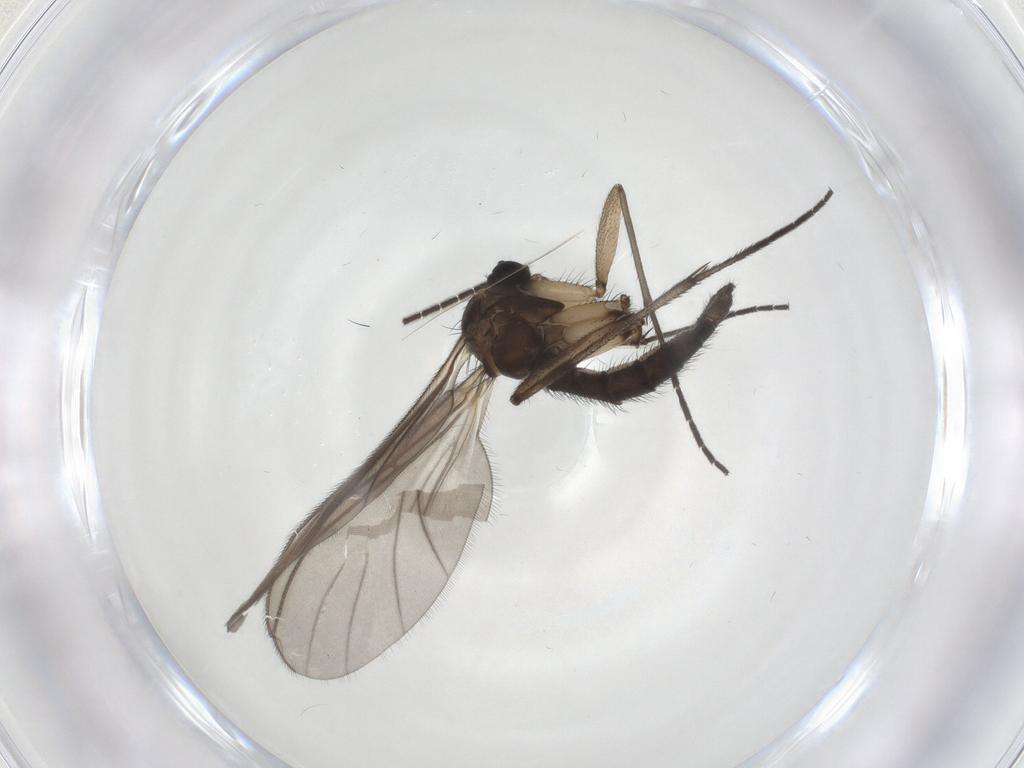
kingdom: Animalia
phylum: Arthropoda
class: Insecta
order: Diptera
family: Sciaridae
